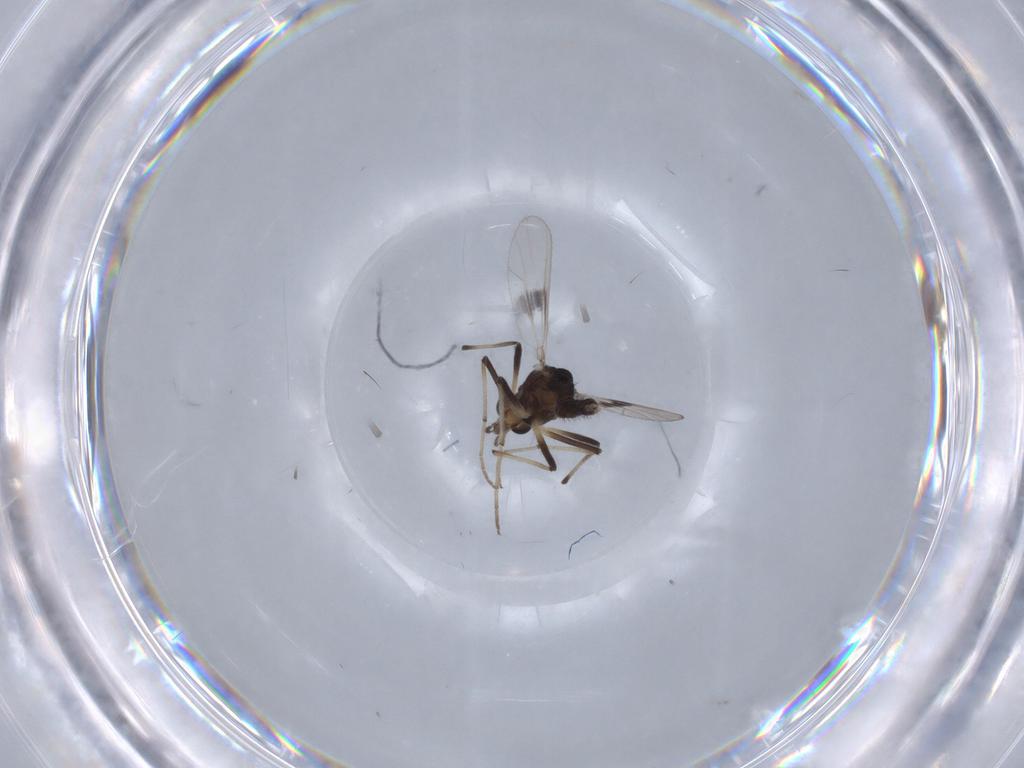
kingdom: Animalia
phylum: Arthropoda
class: Insecta
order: Diptera
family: Chironomidae
